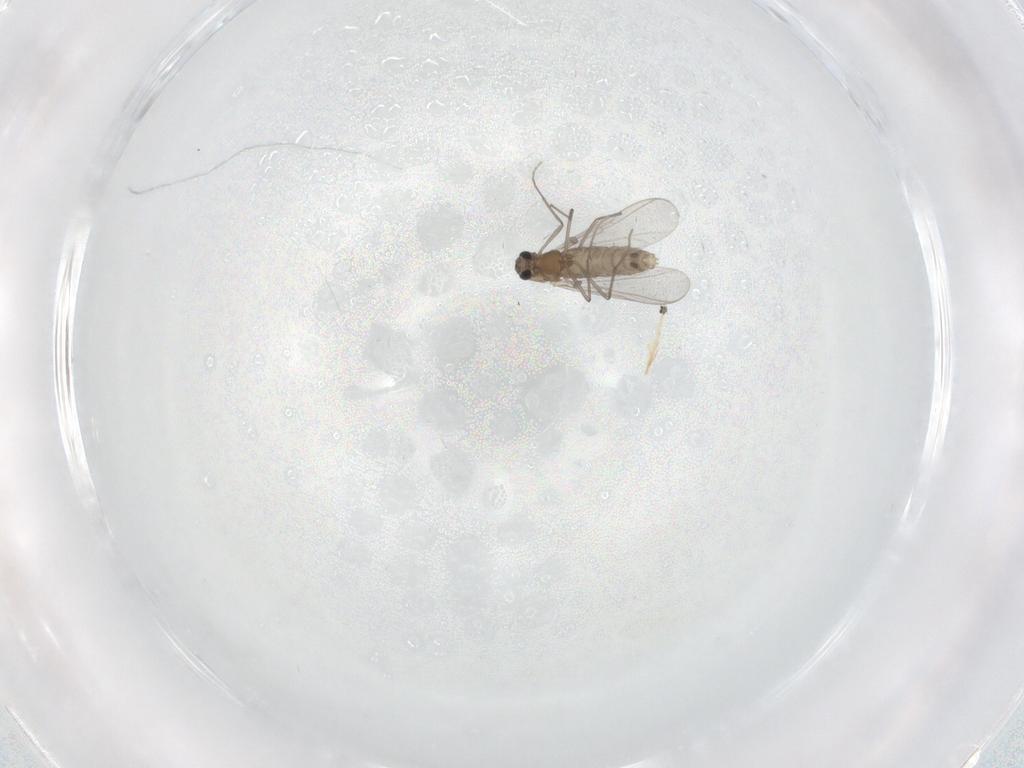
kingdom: Animalia
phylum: Arthropoda
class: Insecta
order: Diptera
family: Chironomidae
